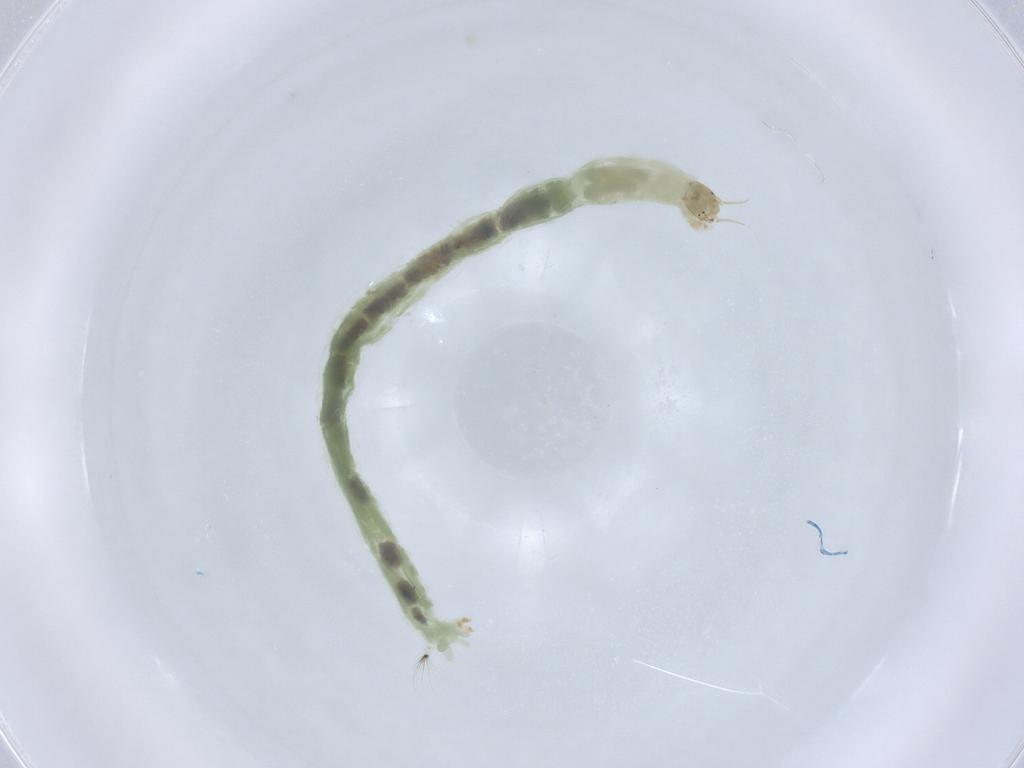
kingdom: Animalia
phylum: Arthropoda
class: Insecta
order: Diptera
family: Chironomidae
